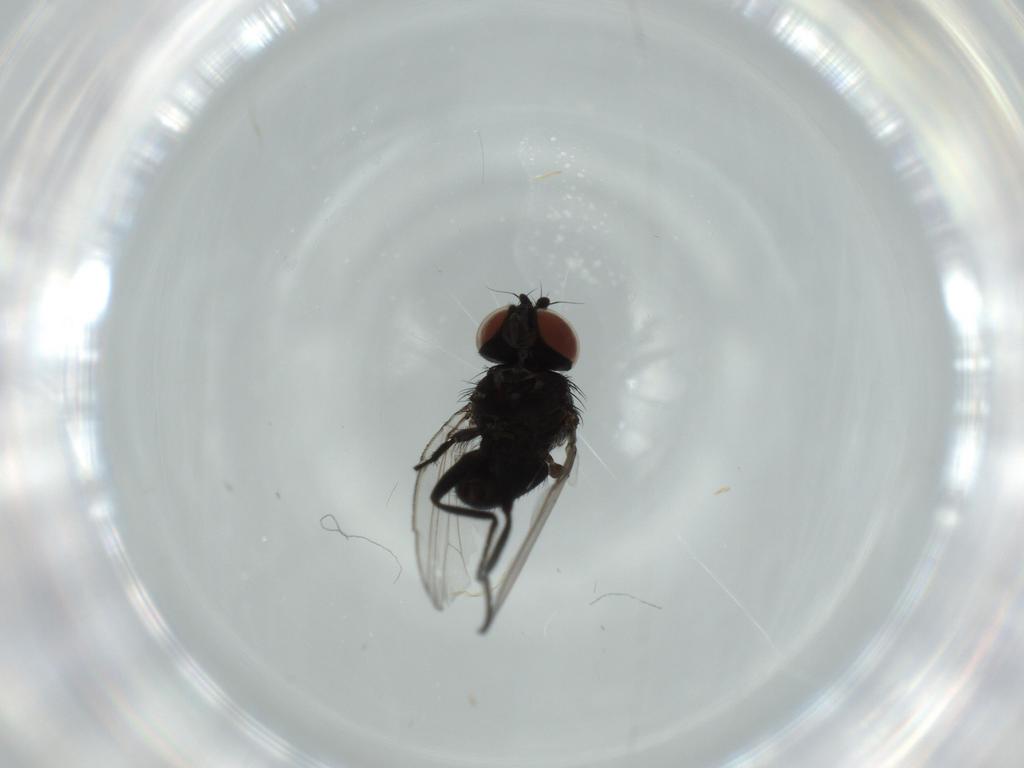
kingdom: Animalia
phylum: Arthropoda
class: Insecta
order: Diptera
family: Milichiidae
